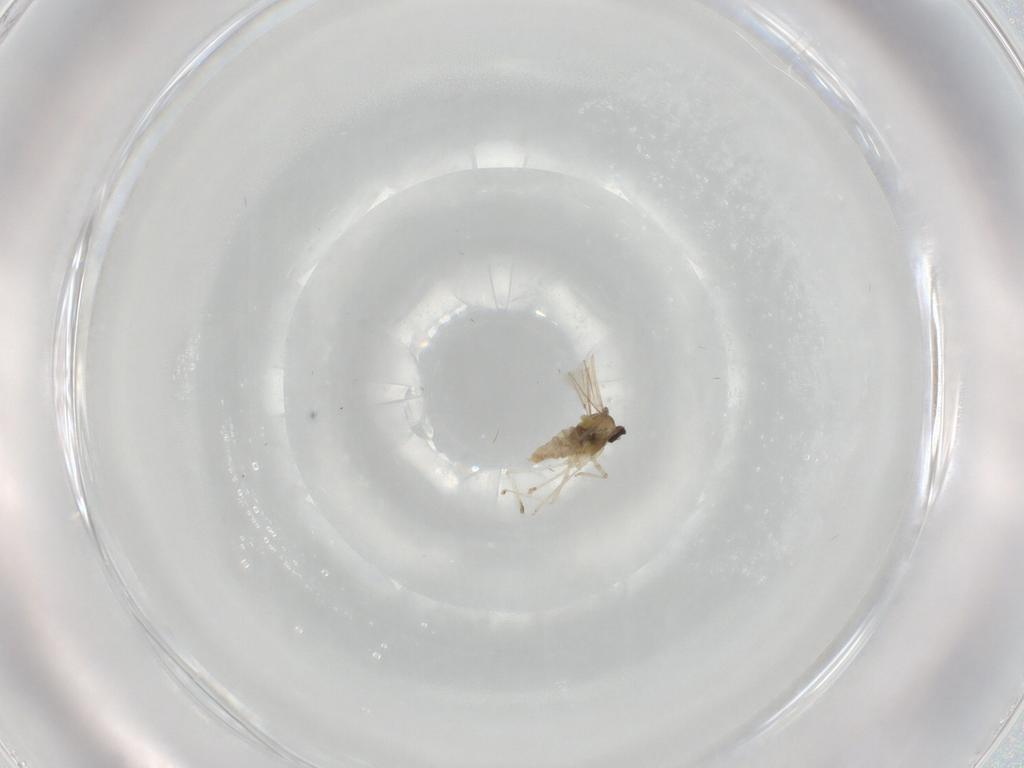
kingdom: Animalia
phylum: Arthropoda
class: Insecta
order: Diptera
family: Cecidomyiidae
